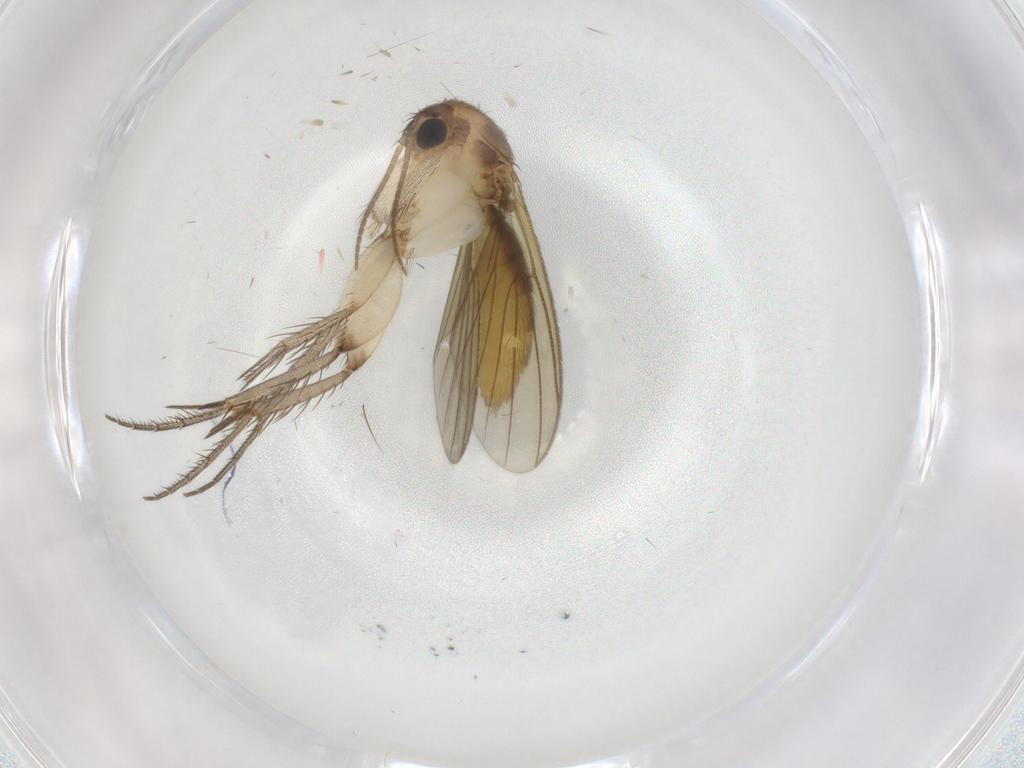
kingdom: Animalia
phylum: Arthropoda
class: Insecta
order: Diptera
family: Mycetophilidae
